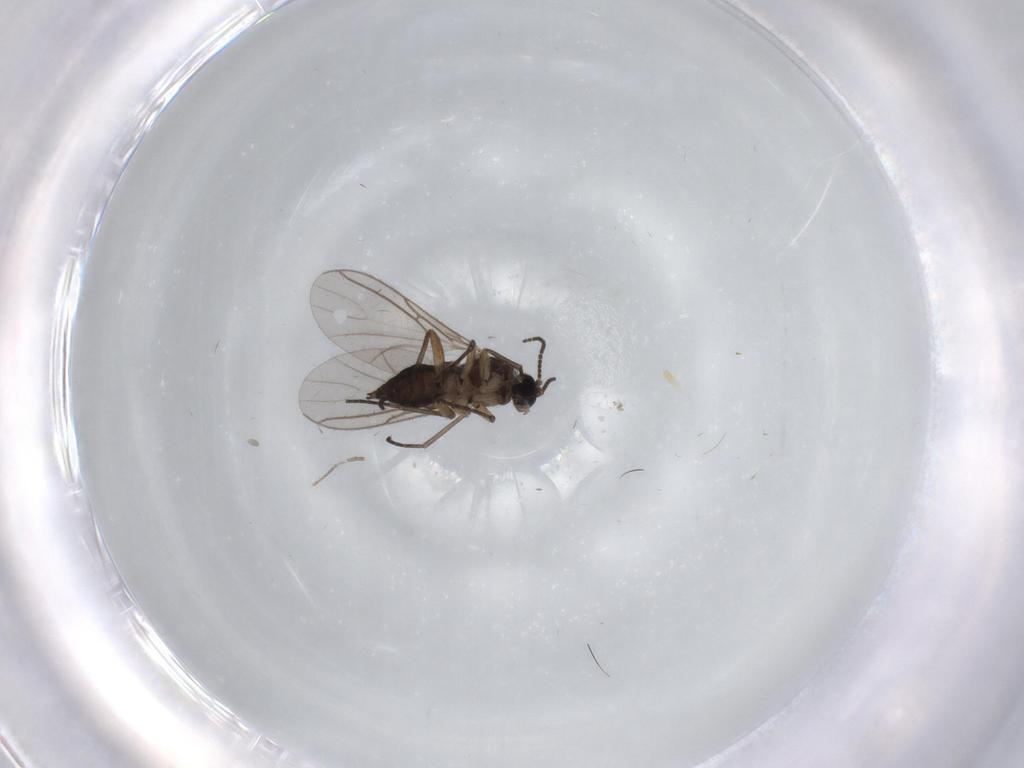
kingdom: Animalia
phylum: Arthropoda
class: Insecta
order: Diptera
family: Sciaridae
